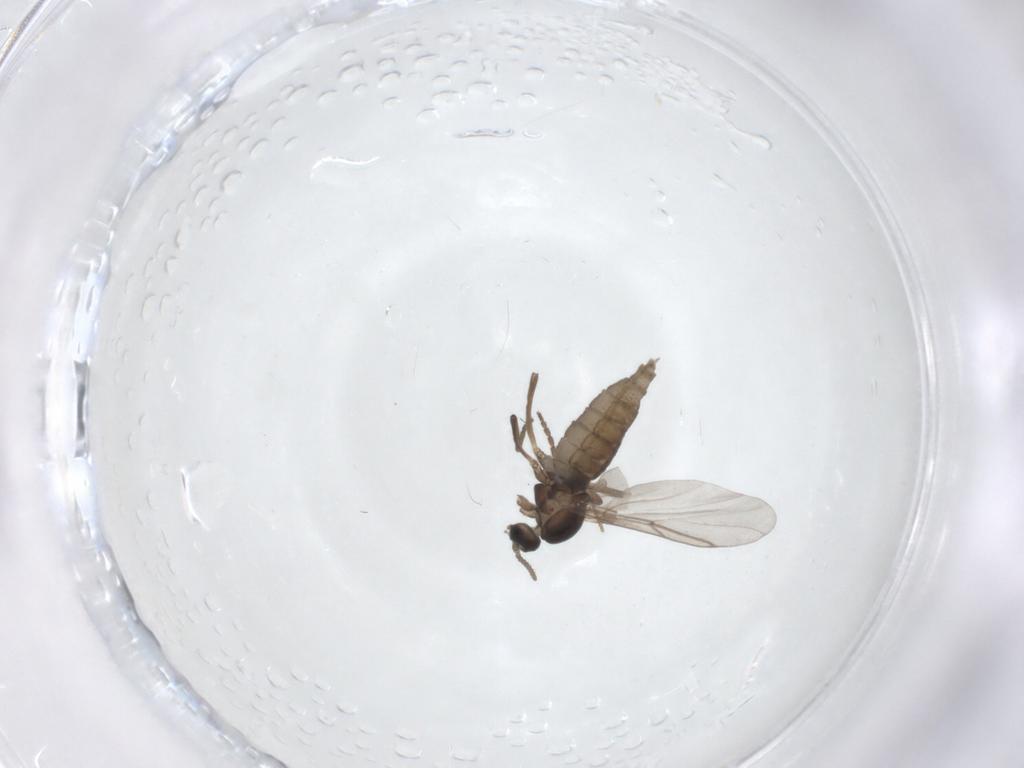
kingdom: Animalia
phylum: Arthropoda
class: Insecta
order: Diptera
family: Cecidomyiidae
